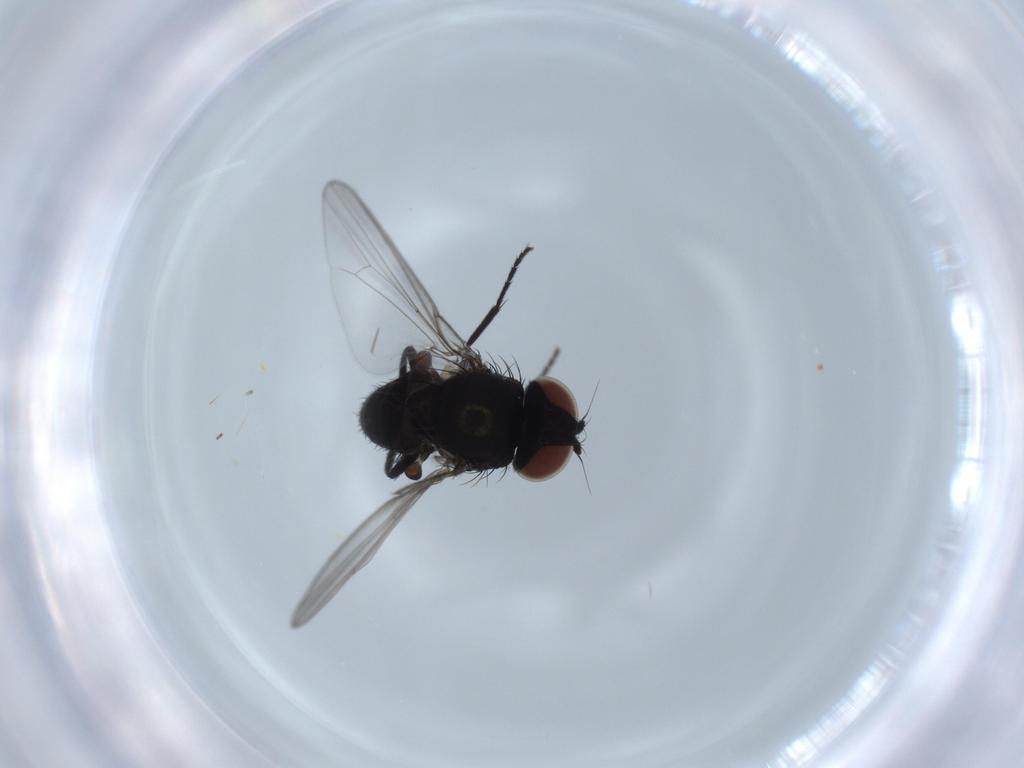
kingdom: Animalia
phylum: Arthropoda
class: Insecta
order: Diptera
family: Milichiidae
